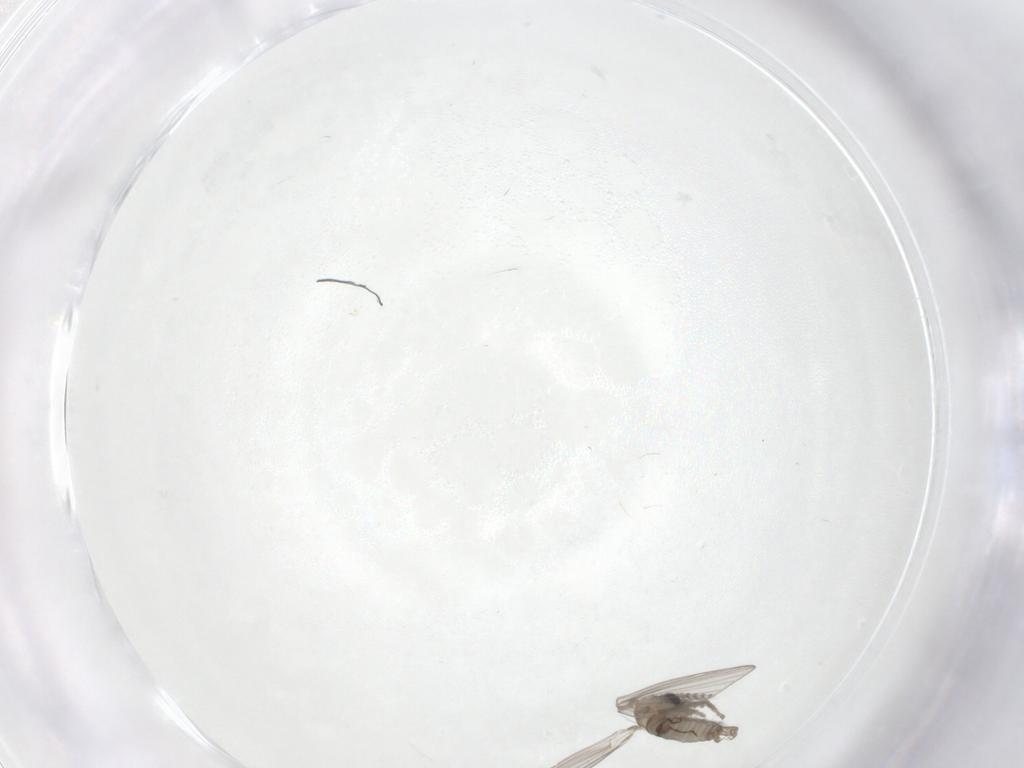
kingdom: Animalia
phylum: Arthropoda
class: Insecta
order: Diptera
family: Psychodidae
